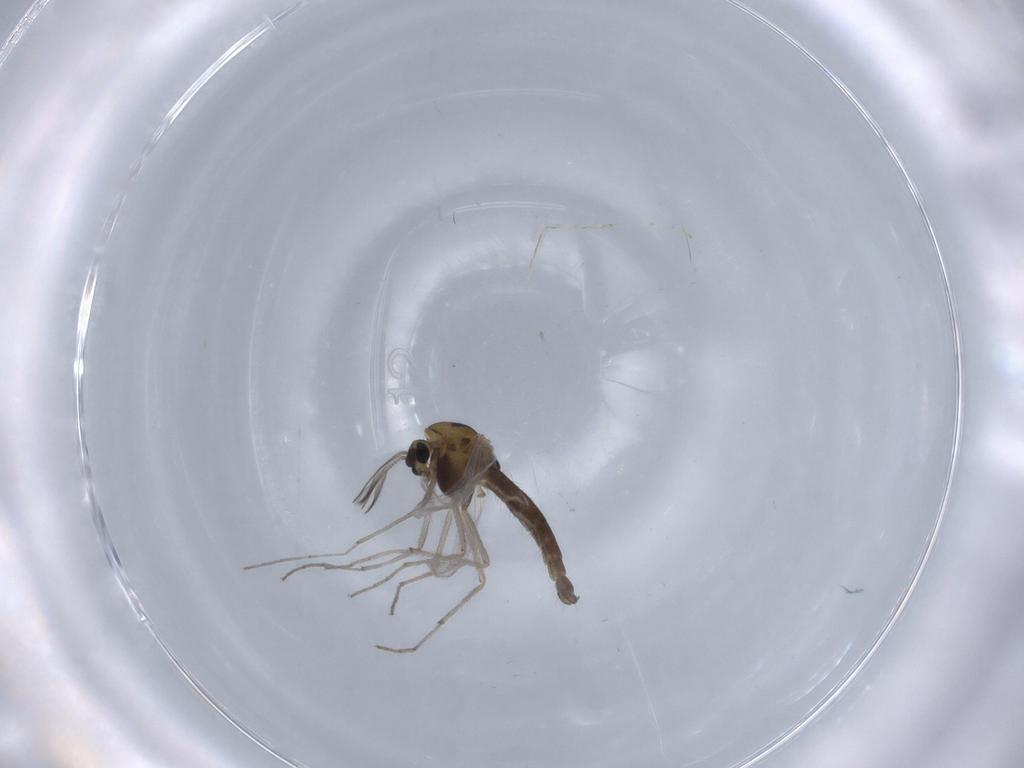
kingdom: Animalia
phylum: Arthropoda
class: Insecta
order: Diptera
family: Chironomidae
